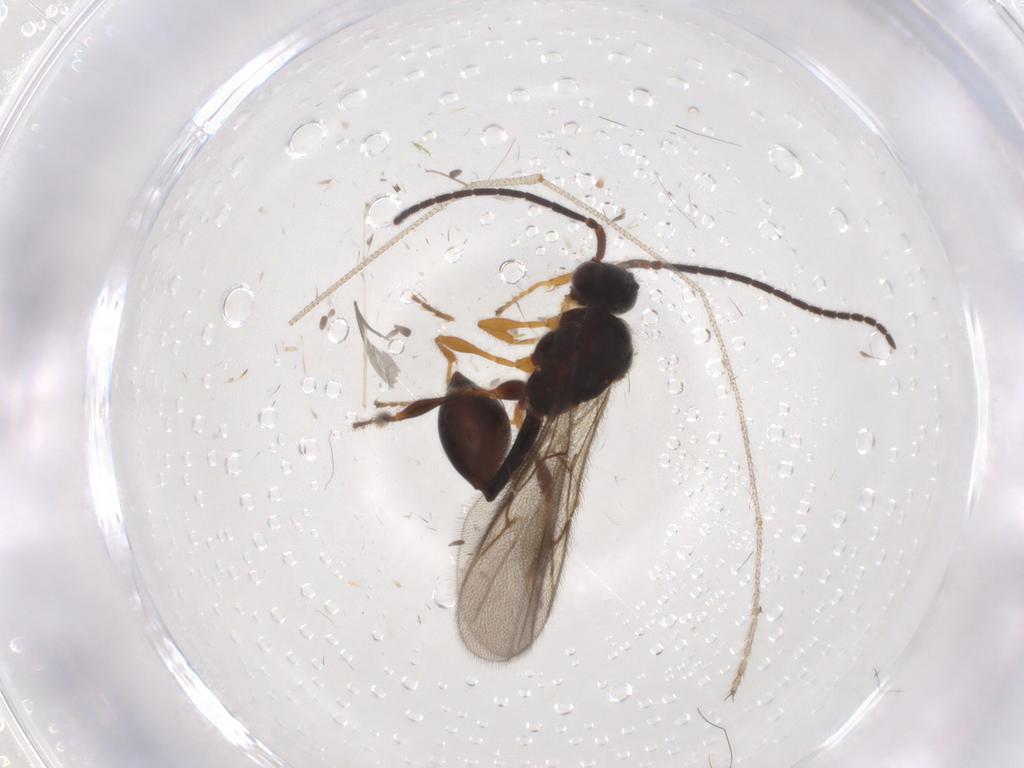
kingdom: Animalia
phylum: Arthropoda
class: Insecta
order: Hymenoptera
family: Diapriidae
